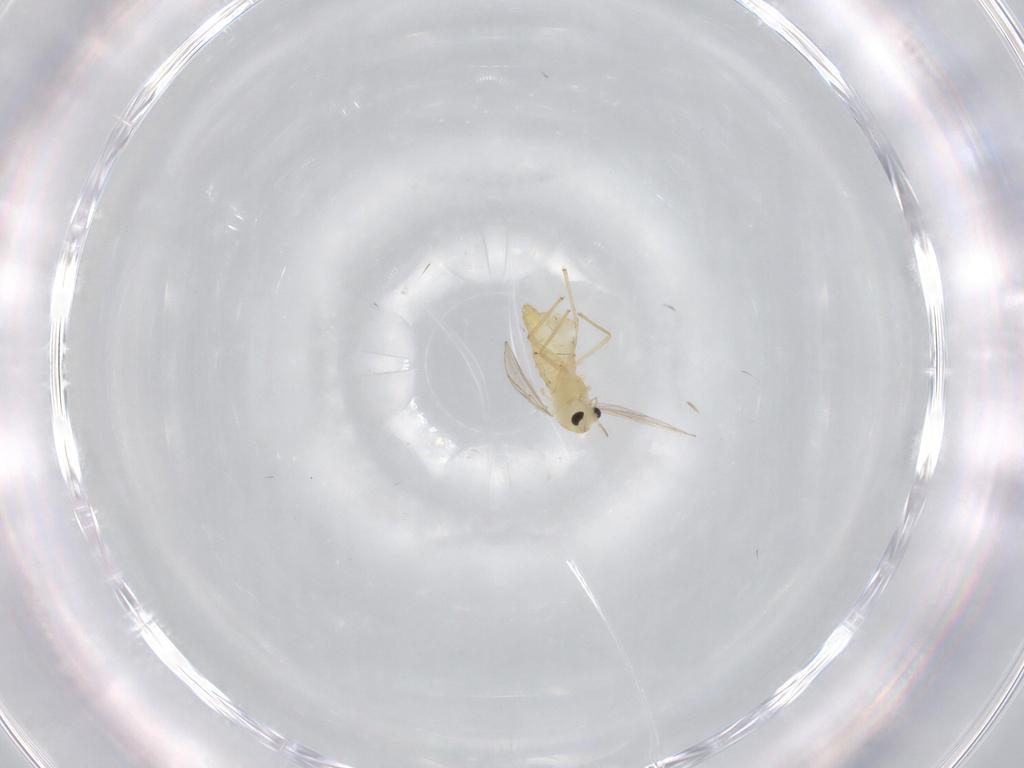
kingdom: Animalia
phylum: Arthropoda
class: Insecta
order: Diptera
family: Chironomidae
